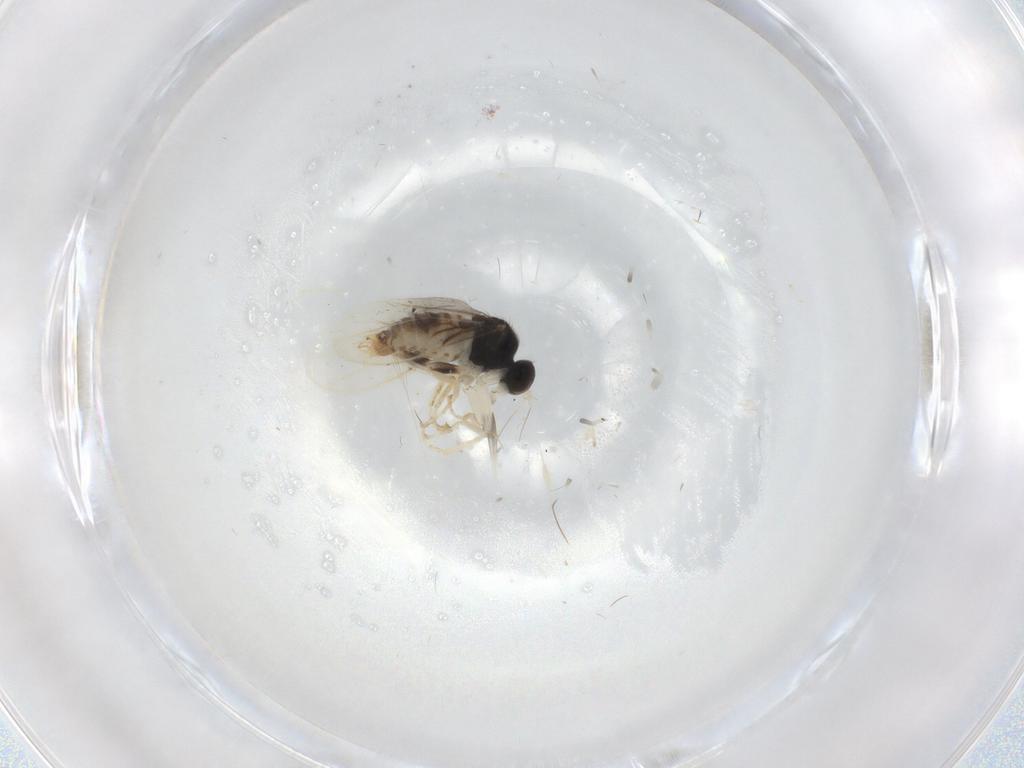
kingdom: Animalia
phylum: Arthropoda
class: Insecta
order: Diptera
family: Hybotidae
